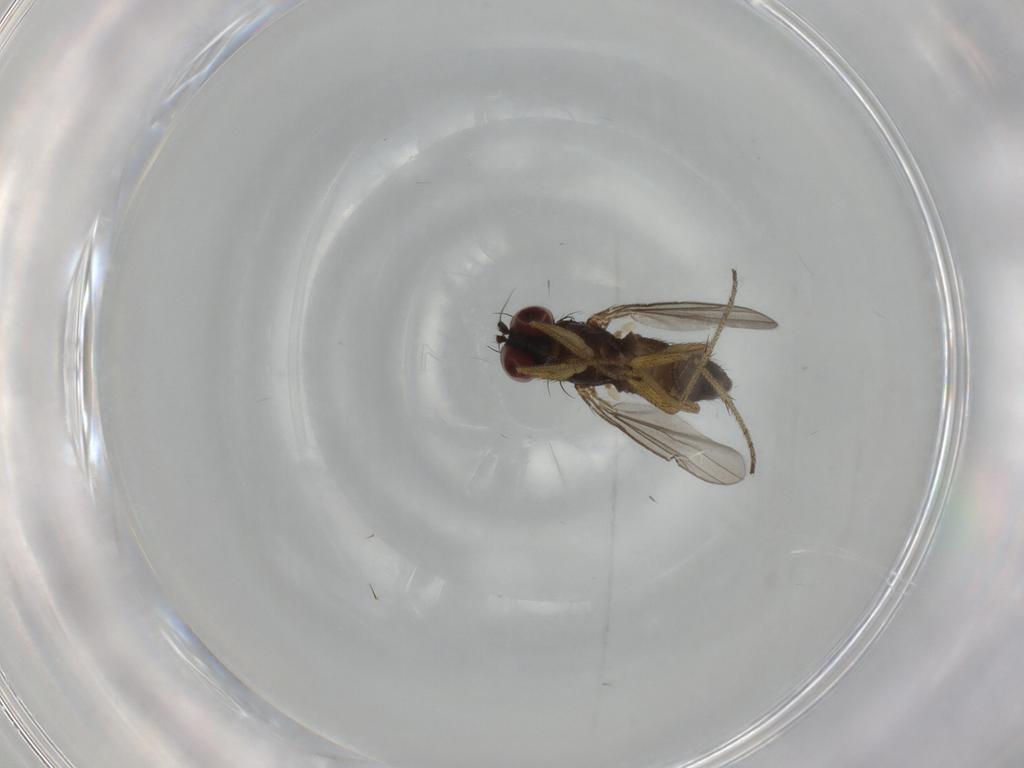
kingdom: Animalia
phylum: Arthropoda
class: Insecta
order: Diptera
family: Dolichopodidae
